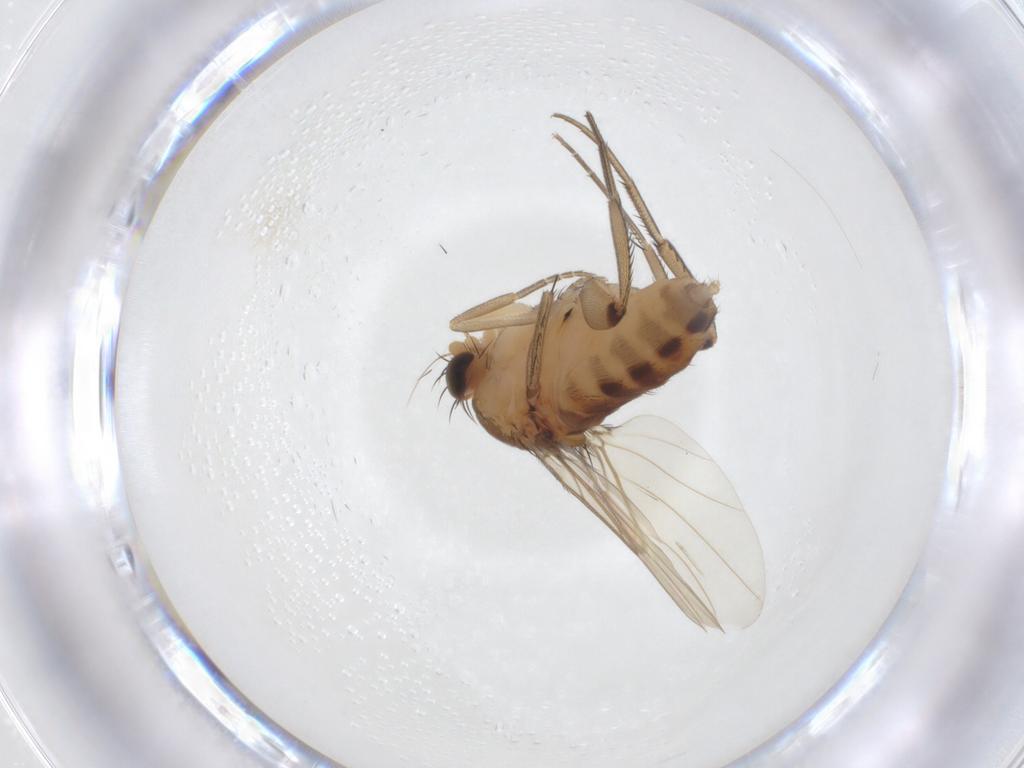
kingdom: Animalia
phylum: Arthropoda
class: Insecta
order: Diptera
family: Phoridae
